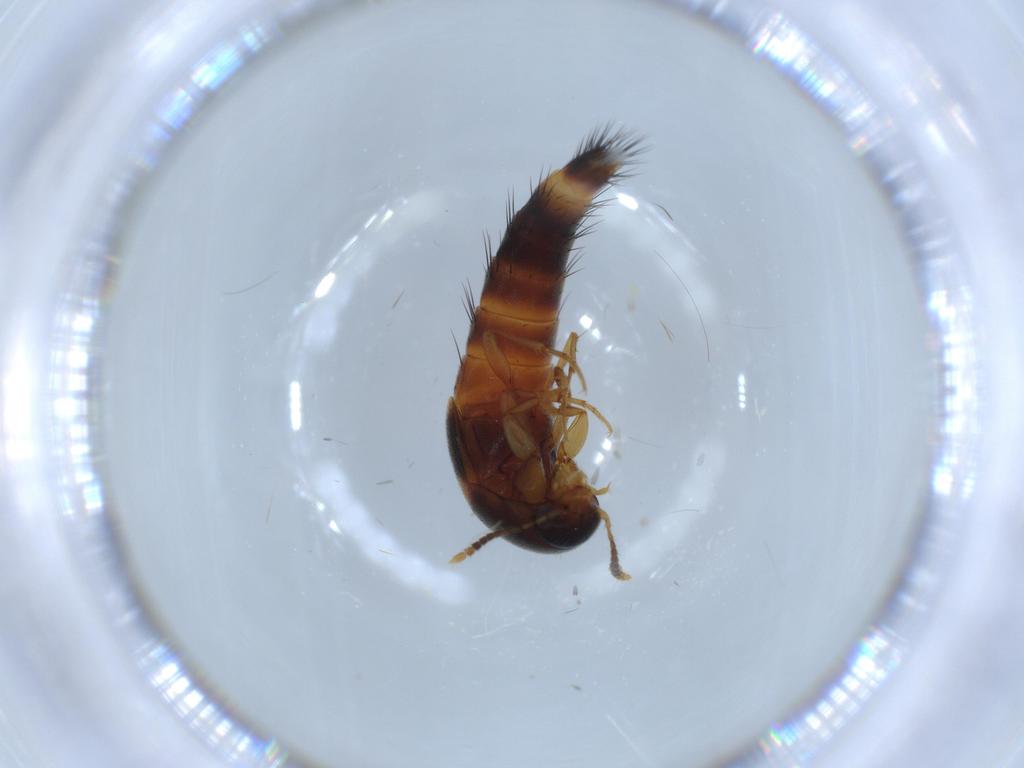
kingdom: Animalia
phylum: Arthropoda
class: Insecta
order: Coleoptera
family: Staphylinidae
